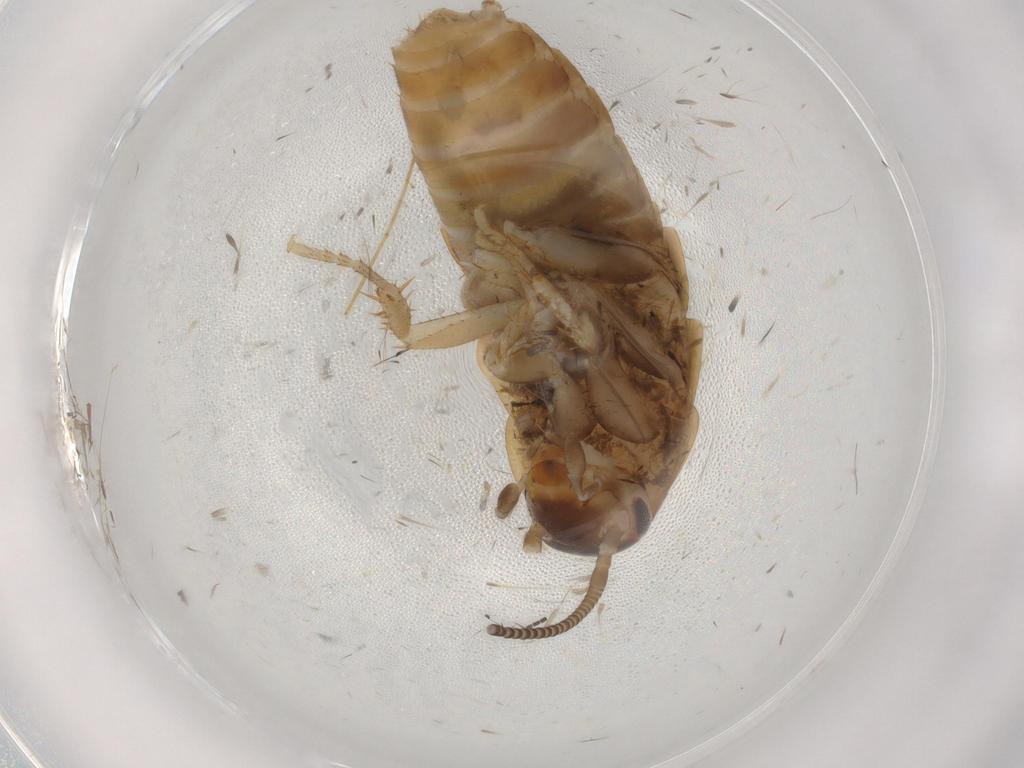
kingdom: Animalia
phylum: Arthropoda
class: Insecta
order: Blattodea
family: Ectobiidae
